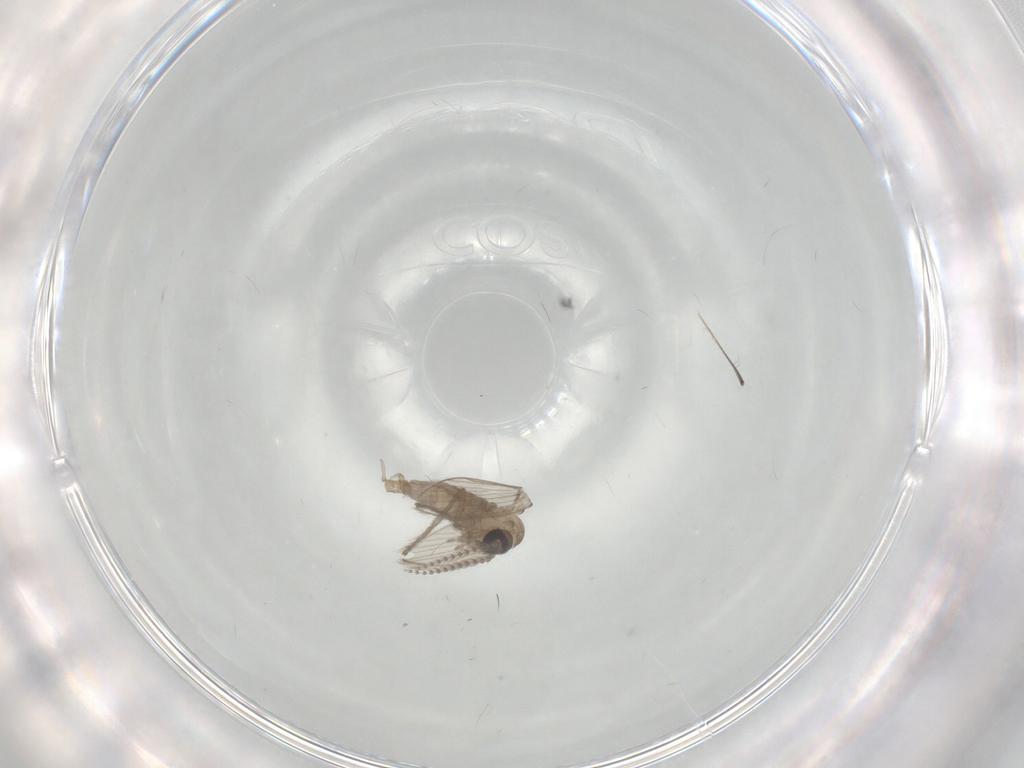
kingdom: Animalia
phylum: Arthropoda
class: Insecta
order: Diptera
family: Psychodidae
